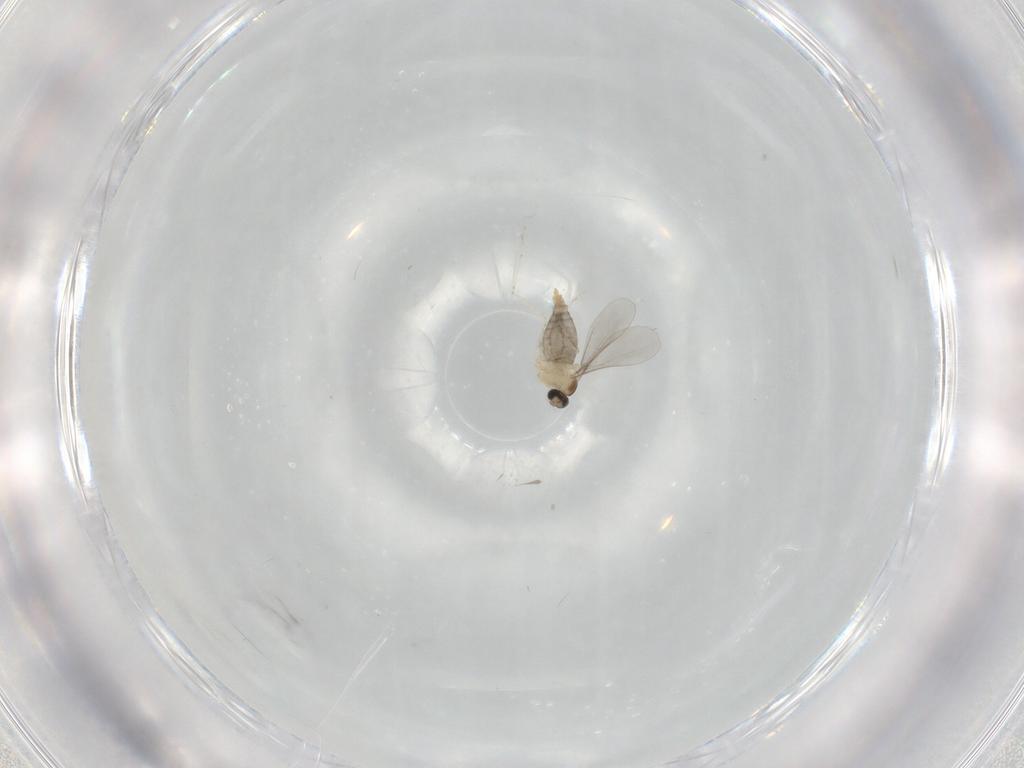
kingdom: Animalia
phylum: Arthropoda
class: Insecta
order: Diptera
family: Cecidomyiidae
